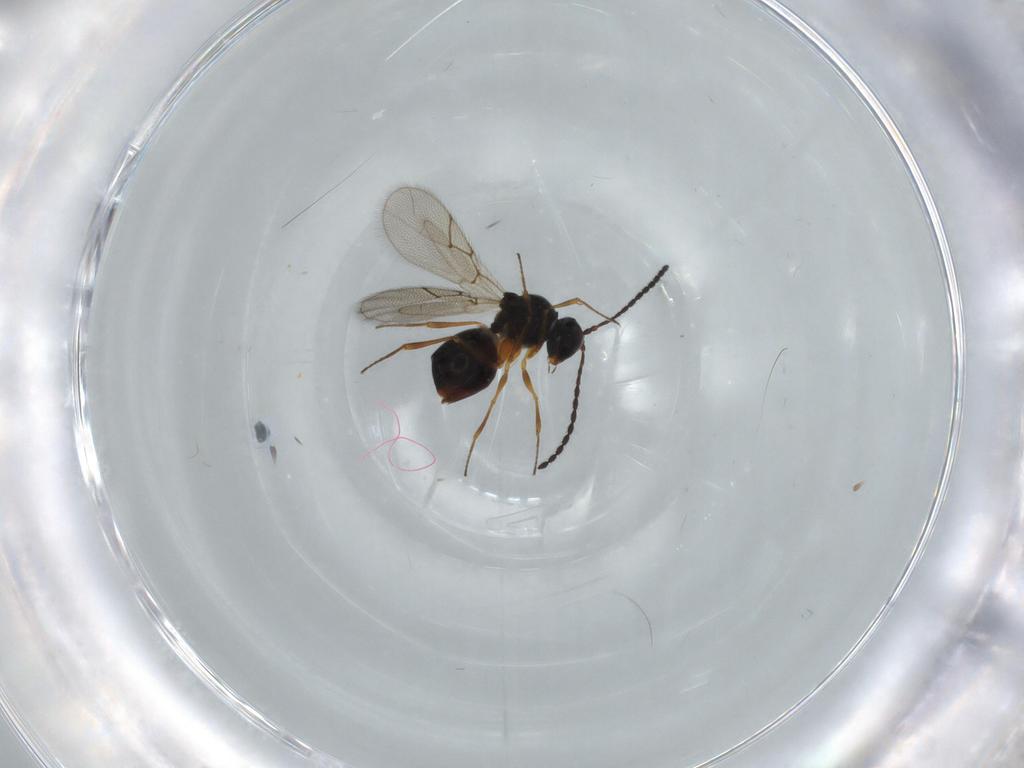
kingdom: Animalia
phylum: Arthropoda
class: Insecta
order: Hymenoptera
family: Figitidae
